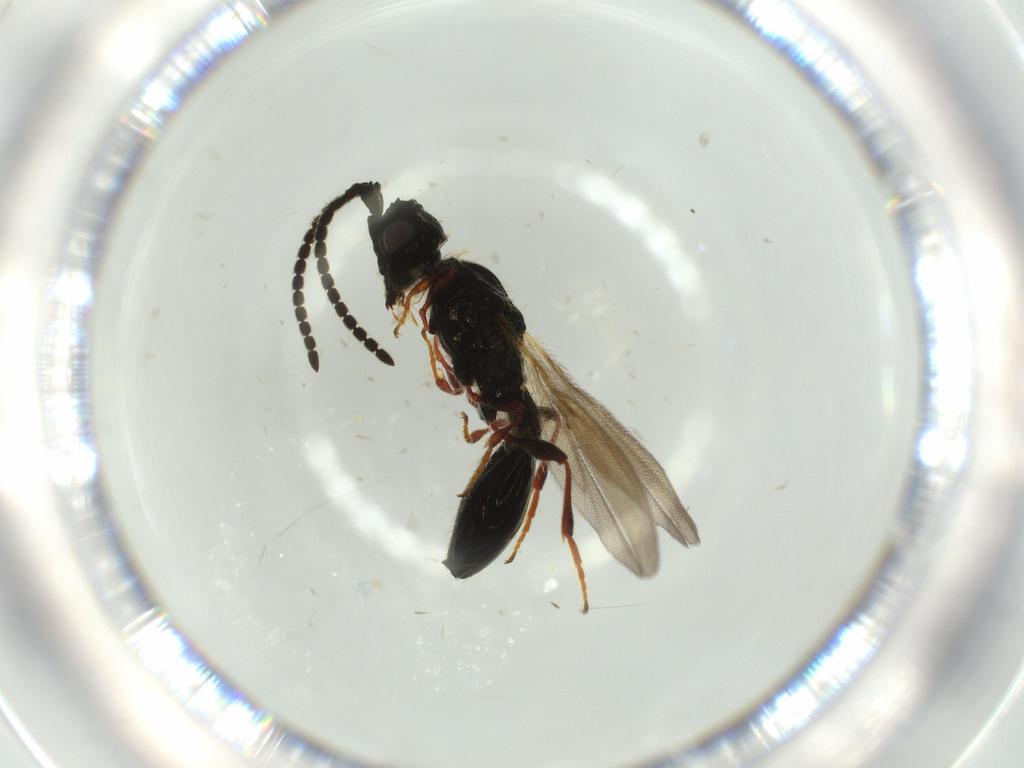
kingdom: Animalia
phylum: Arthropoda
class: Insecta
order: Hymenoptera
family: Diapriidae
